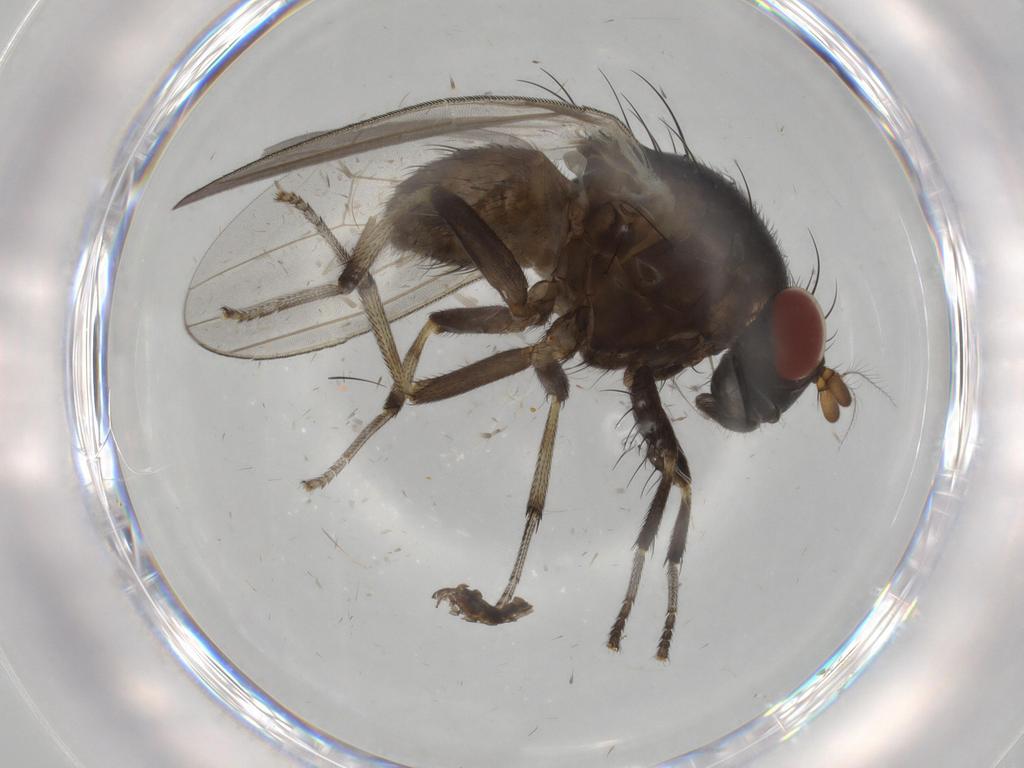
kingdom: Animalia
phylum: Arthropoda
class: Insecta
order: Diptera
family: Cecidomyiidae
